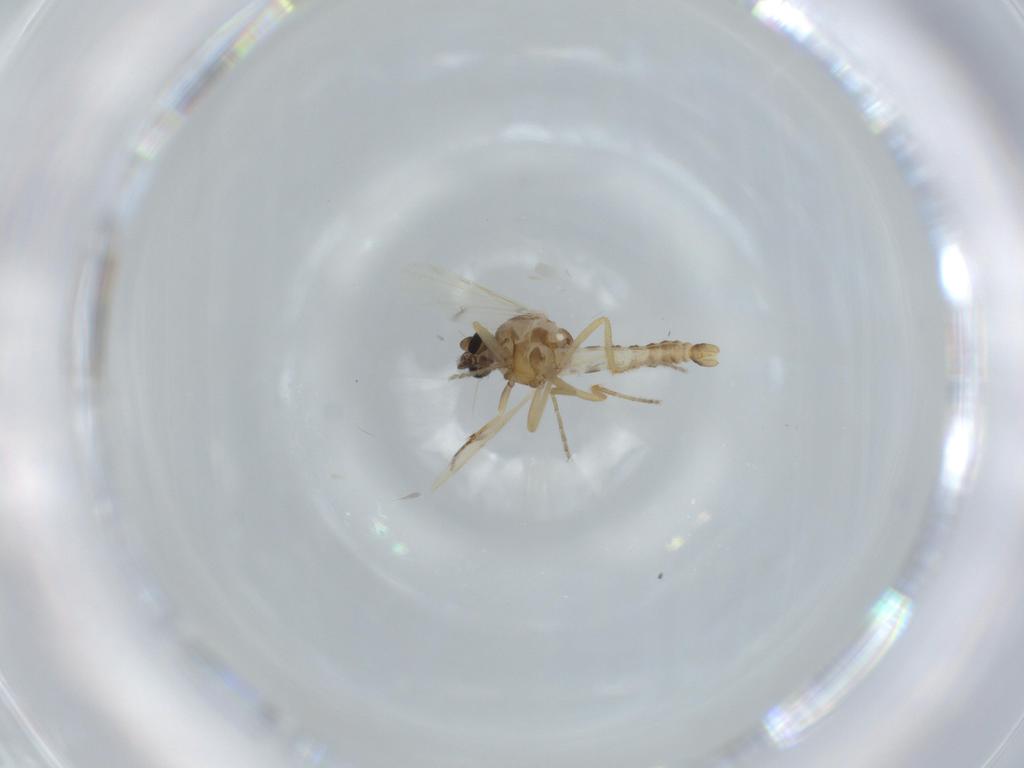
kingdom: Animalia
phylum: Arthropoda
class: Insecta
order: Diptera
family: Ceratopogonidae
